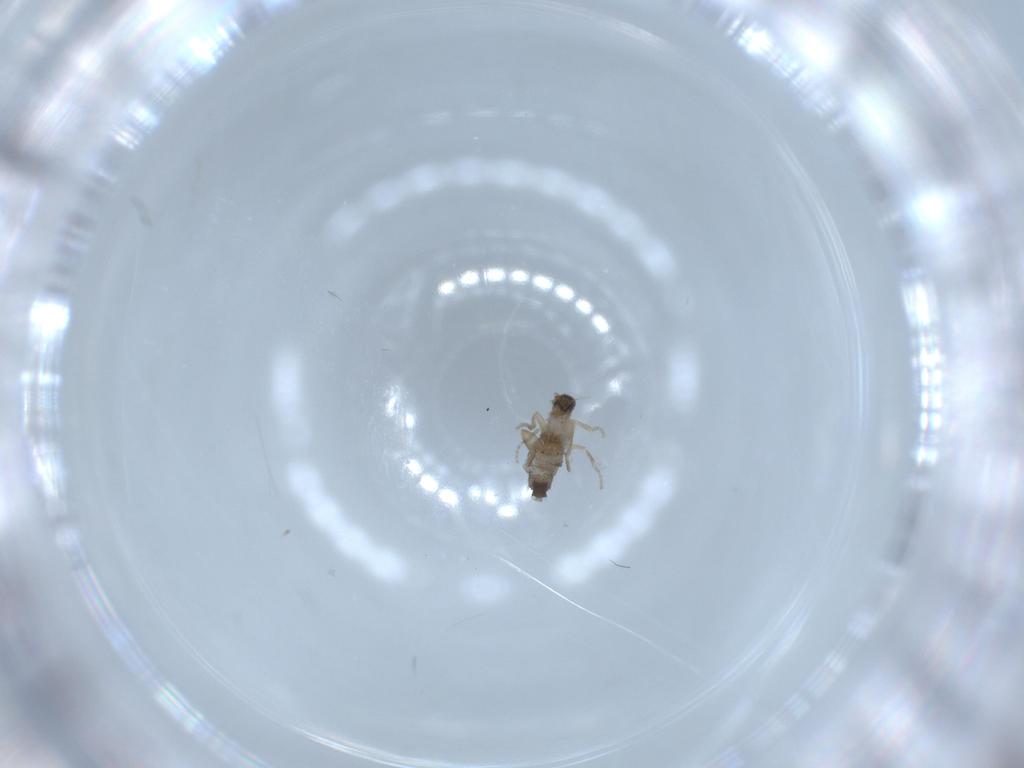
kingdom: Animalia
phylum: Arthropoda
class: Insecta
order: Diptera
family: Phoridae
